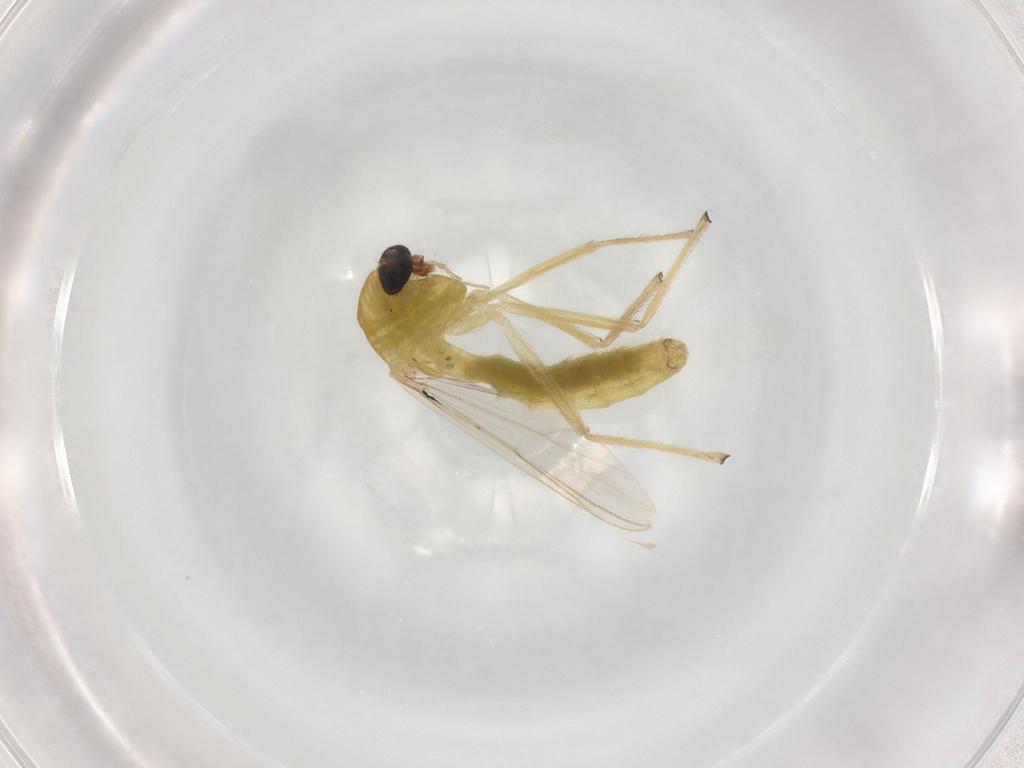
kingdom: Animalia
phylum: Arthropoda
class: Insecta
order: Diptera
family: Chironomidae
